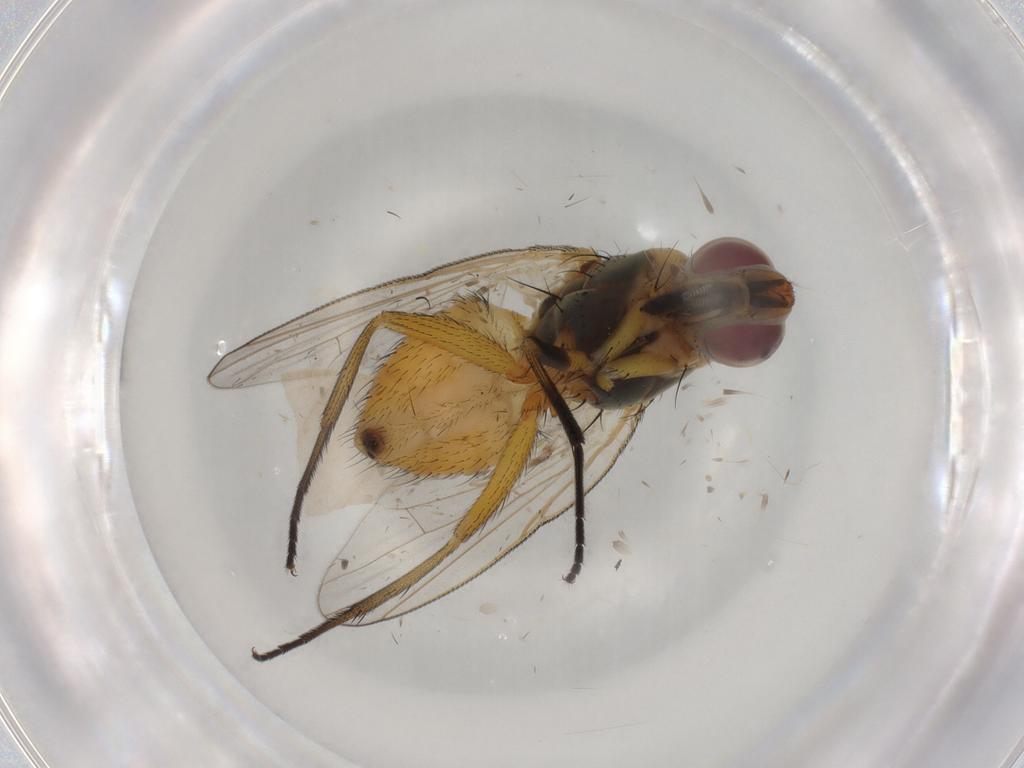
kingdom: Animalia
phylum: Arthropoda
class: Insecta
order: Diptera
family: Muscidae
